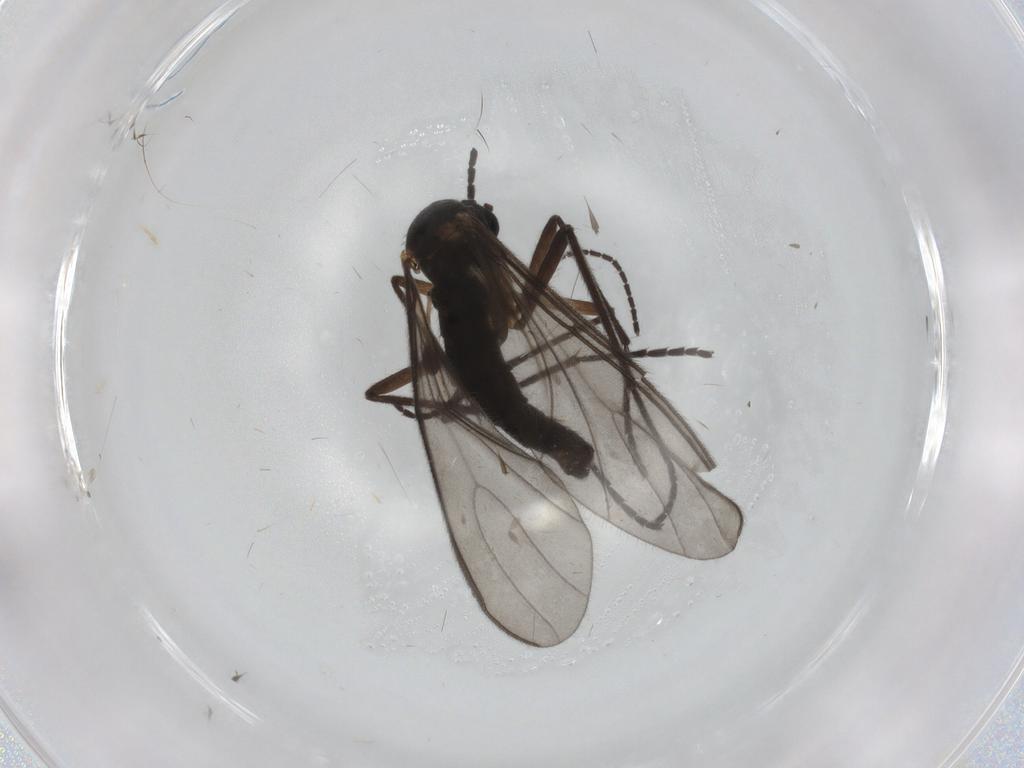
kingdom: Animalia
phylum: Arthropoda
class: Insecta
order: Diptera
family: Sciaridae
